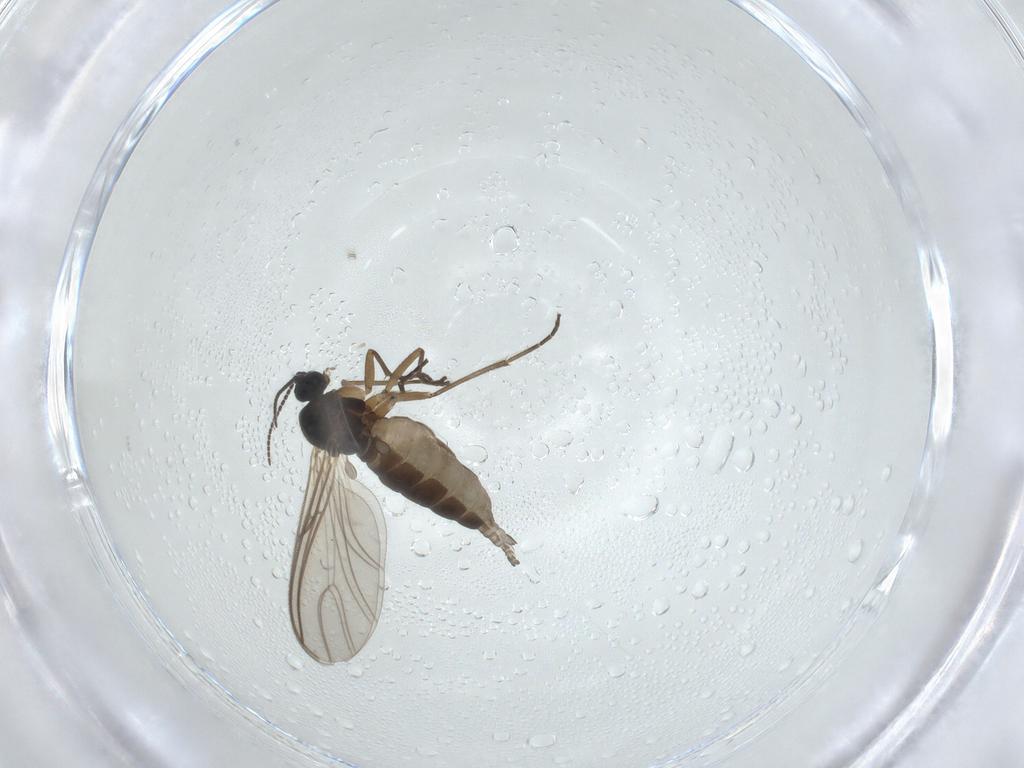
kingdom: Animalia
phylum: Arthropoda
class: Insecta
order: Diptera
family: Sciaridae
